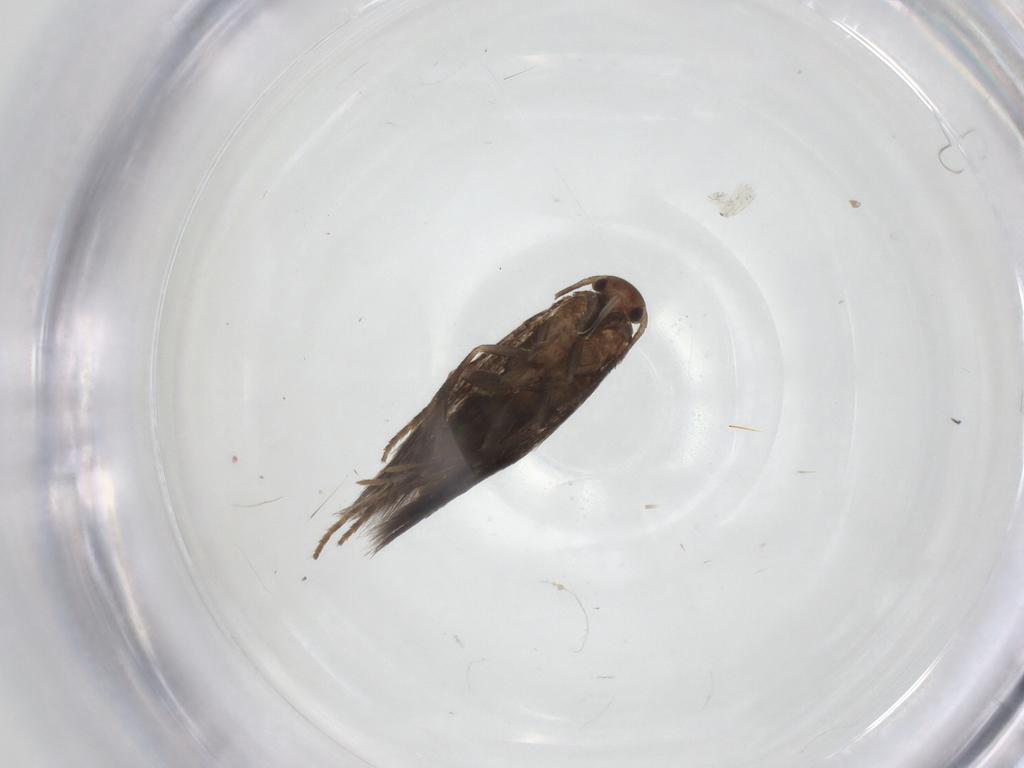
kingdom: Animalia
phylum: Arthropoda
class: Insecta
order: Lepidoptera
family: Elachistidae
